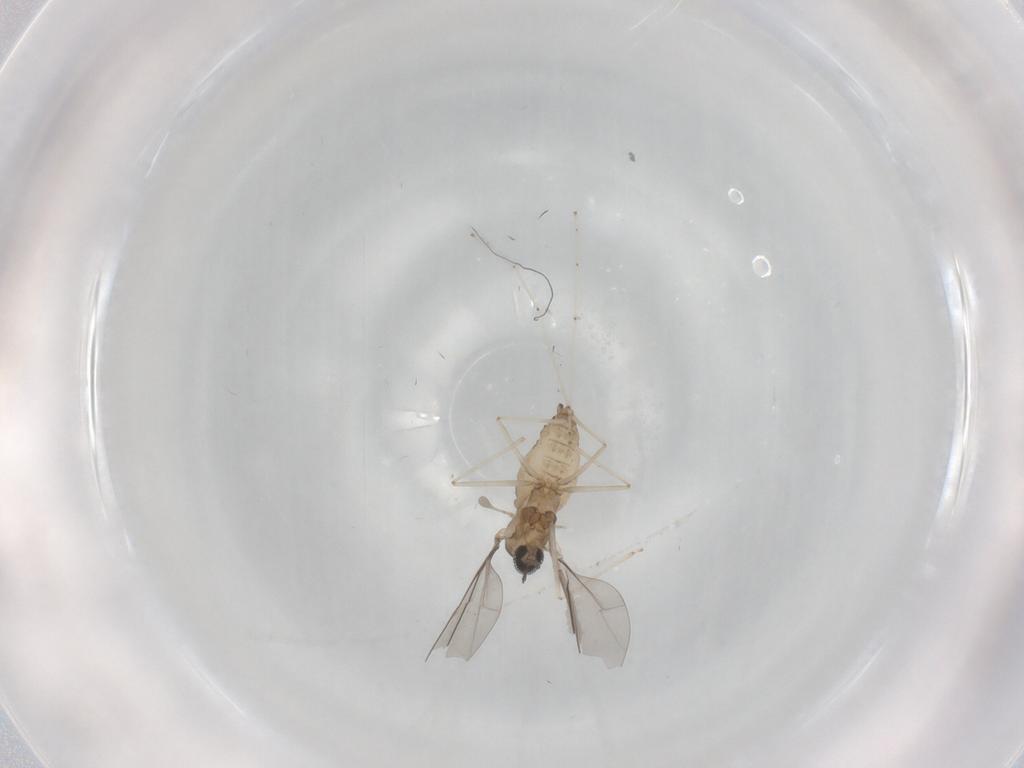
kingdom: Animalia
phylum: Arthropoda
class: Insecta
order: Diptera
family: Cecidomyiidae
